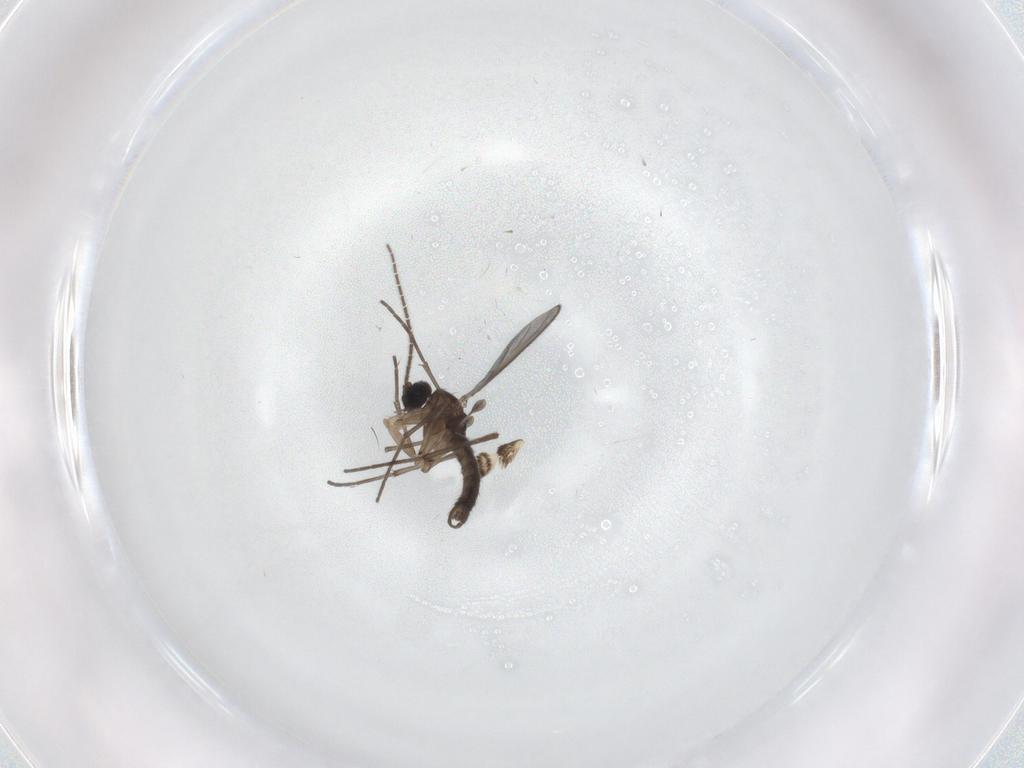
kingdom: Animalia
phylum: Arthropoda
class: Insecta
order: Diptera
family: Sciaridae
